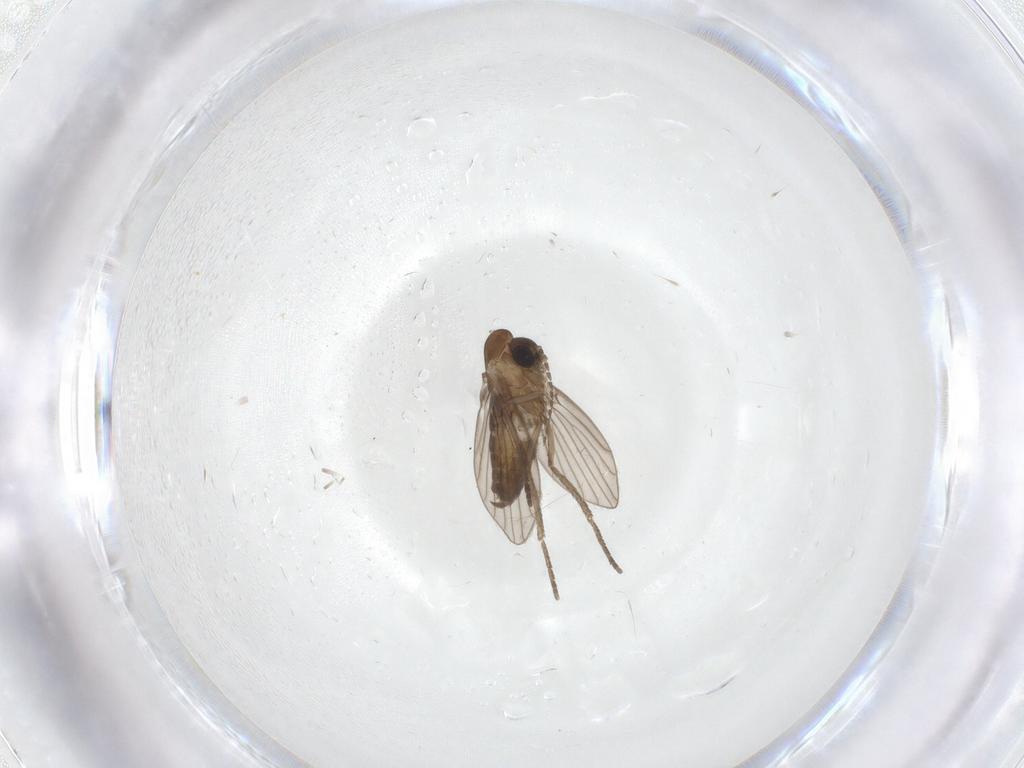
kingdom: Animalia
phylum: Arthropoda
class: Insecta
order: Diptera
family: Psychodidae
